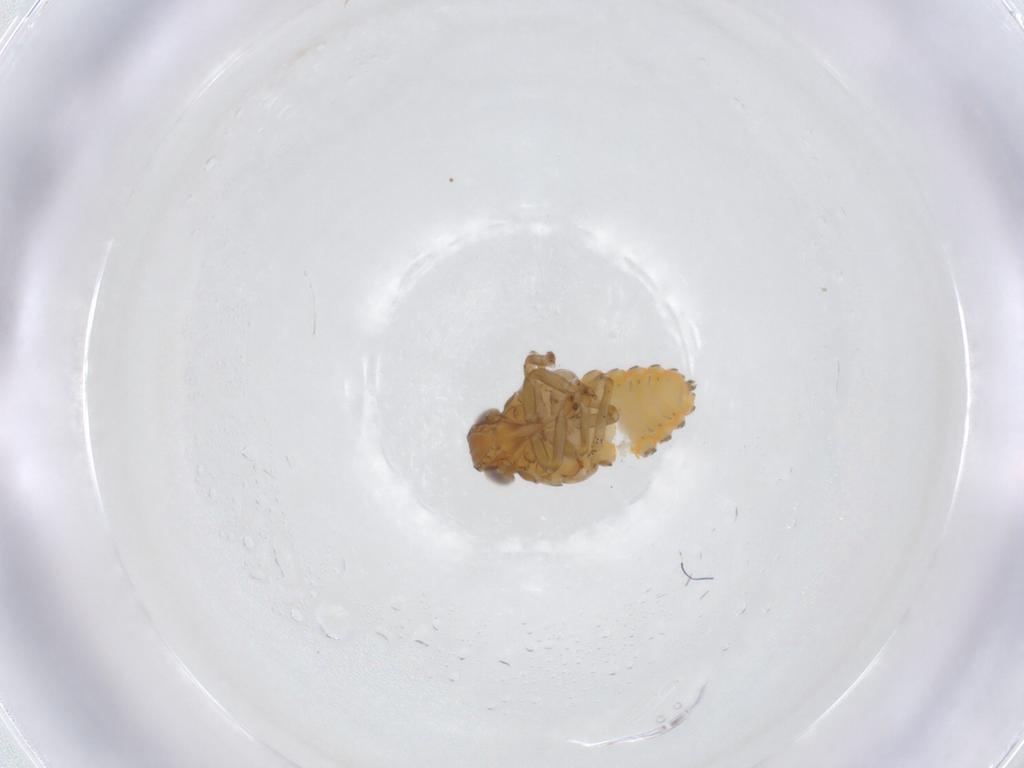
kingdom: Animalia
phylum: Arthropoda
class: Insecta
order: Hemiptera
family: Issidae
